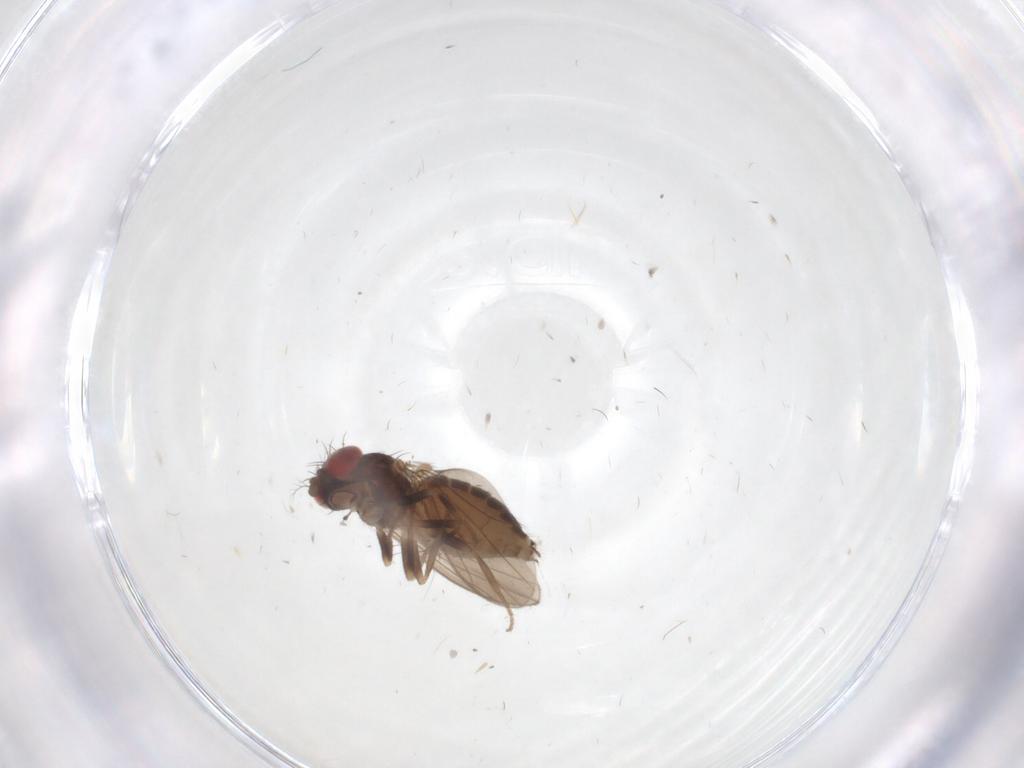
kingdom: Animalia
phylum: Arthropoda
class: Insecta
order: Diptera
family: Drosophilidae
